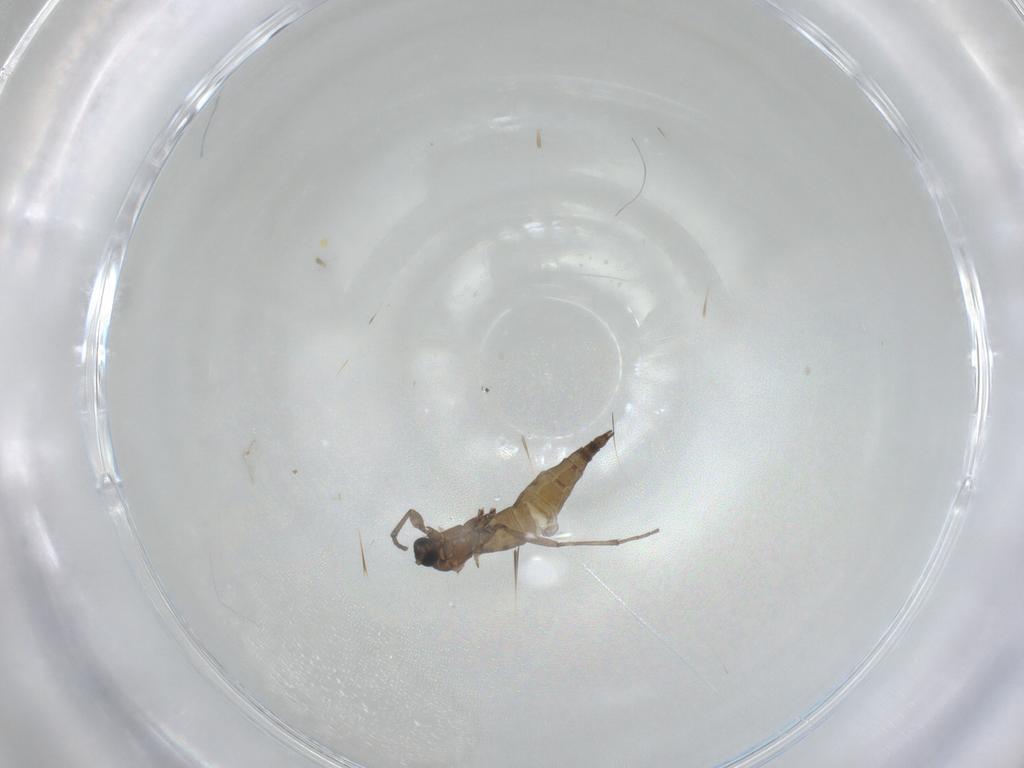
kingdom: Animalia
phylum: Arthropoda
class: Insecta
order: Diptera
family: Sciaridae
